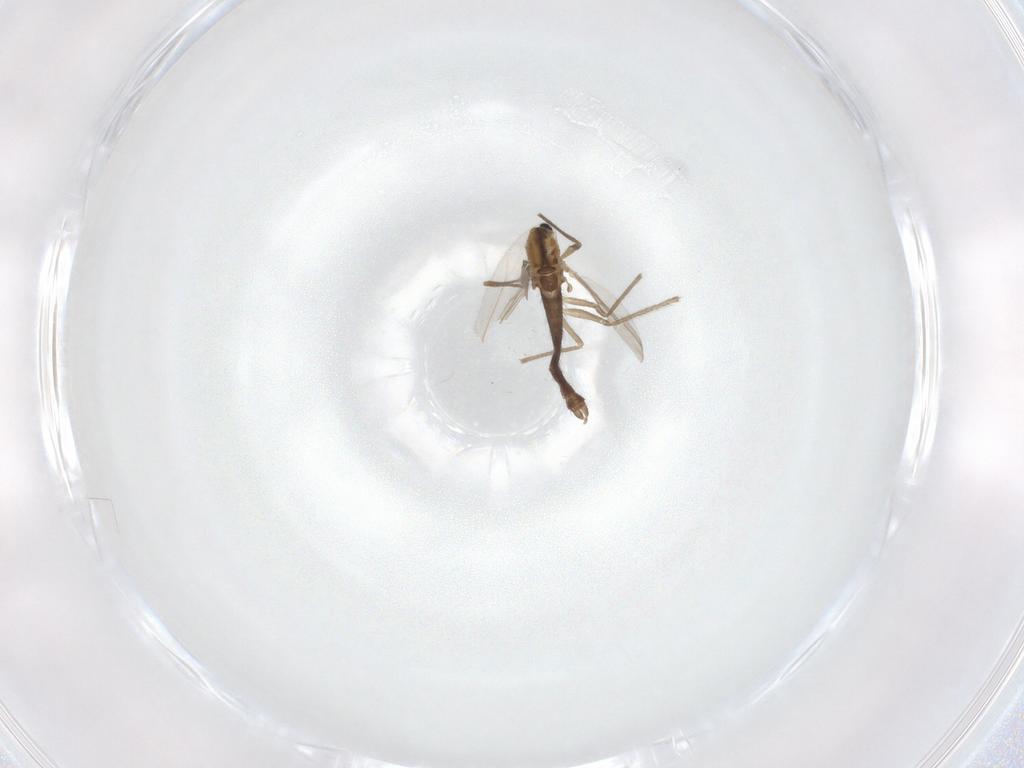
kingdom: Animalia
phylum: Arthropoda
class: Insecta
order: Diptera
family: Chironomidae
